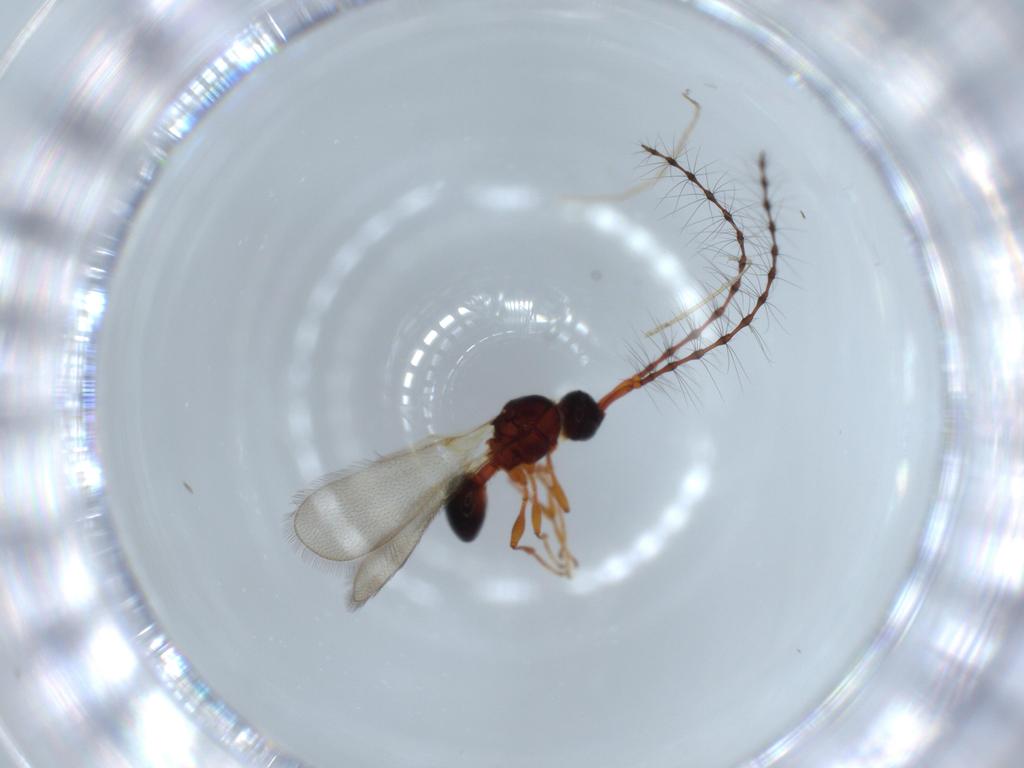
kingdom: Animalia
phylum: Arthropoda
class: Insecta
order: Hymenoptera
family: Diapriidae
